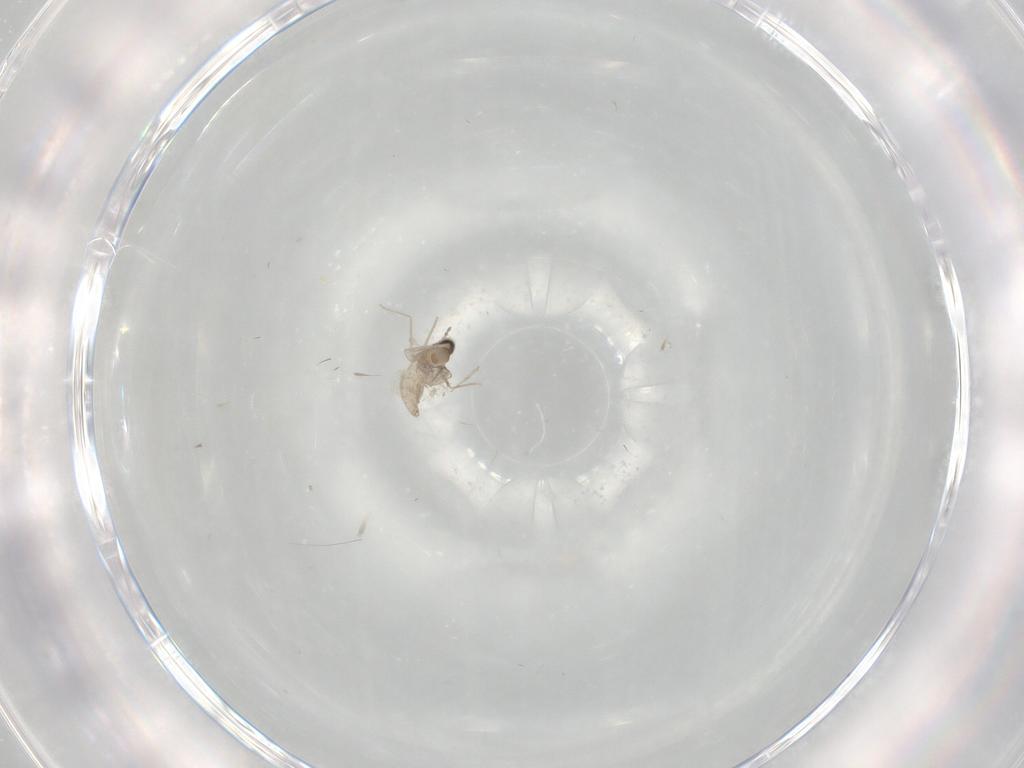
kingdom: Animalia
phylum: Arthropoda
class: Insecta
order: Diptera
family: Cecidomyiidae
